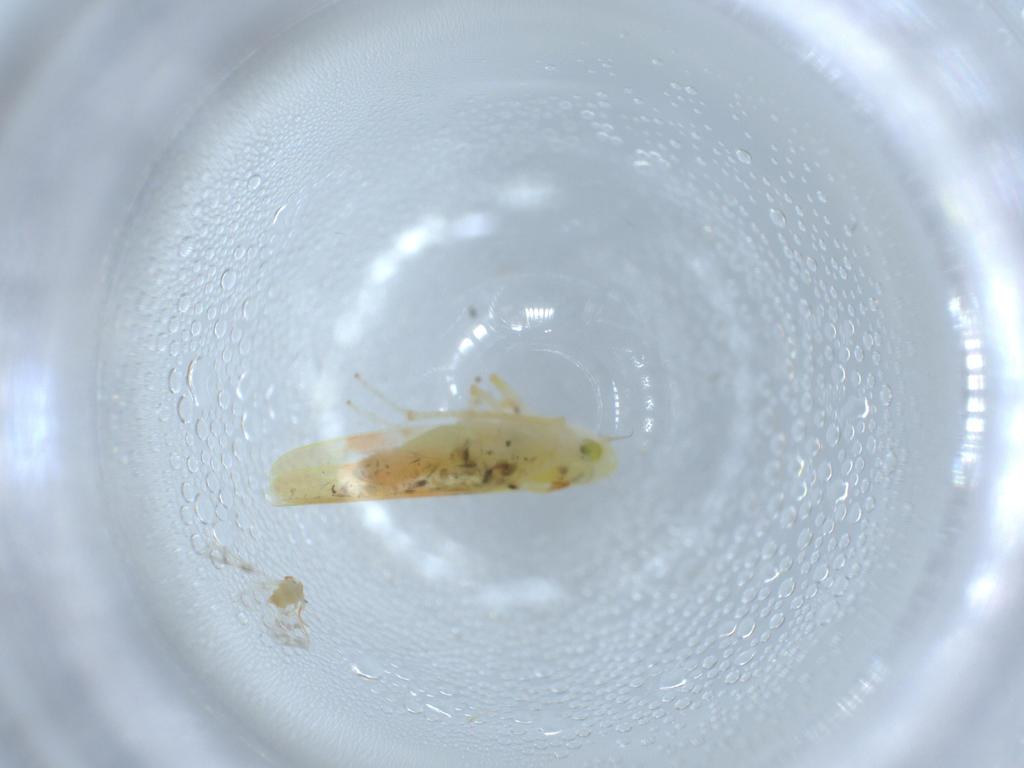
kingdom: Animalia
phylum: Arthropoda
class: Insecta
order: Hemiptera
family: Aleyrodidae
